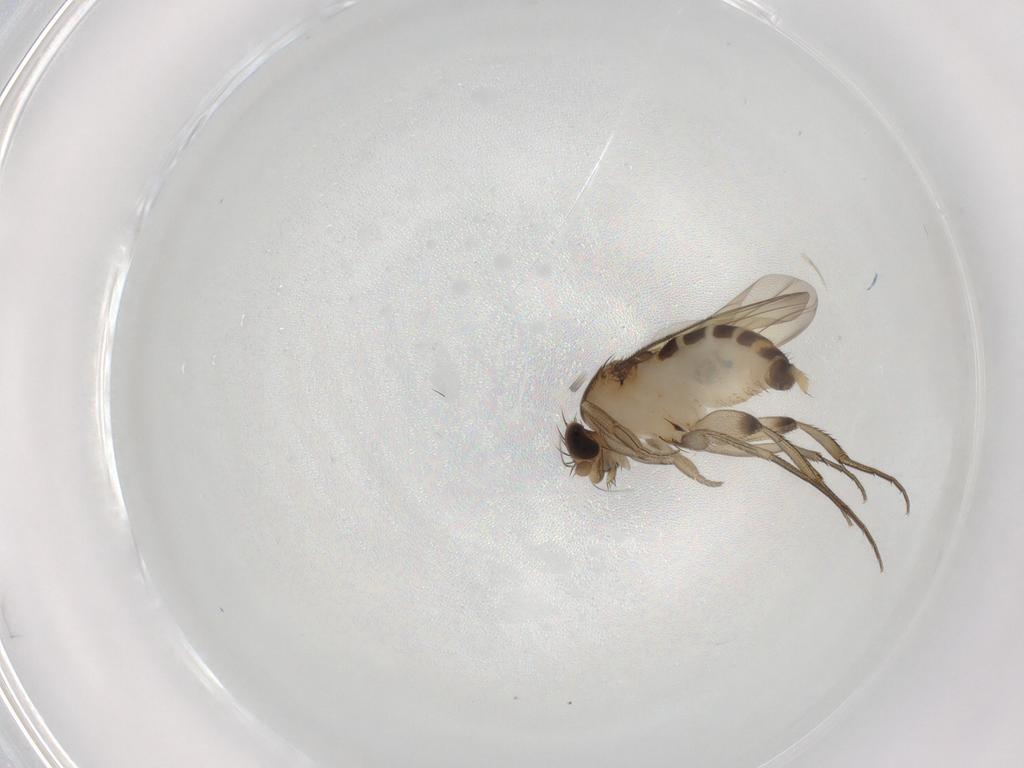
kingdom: Animalia
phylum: Arthropoda
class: Insecta
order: Diptera
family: Phoridae
